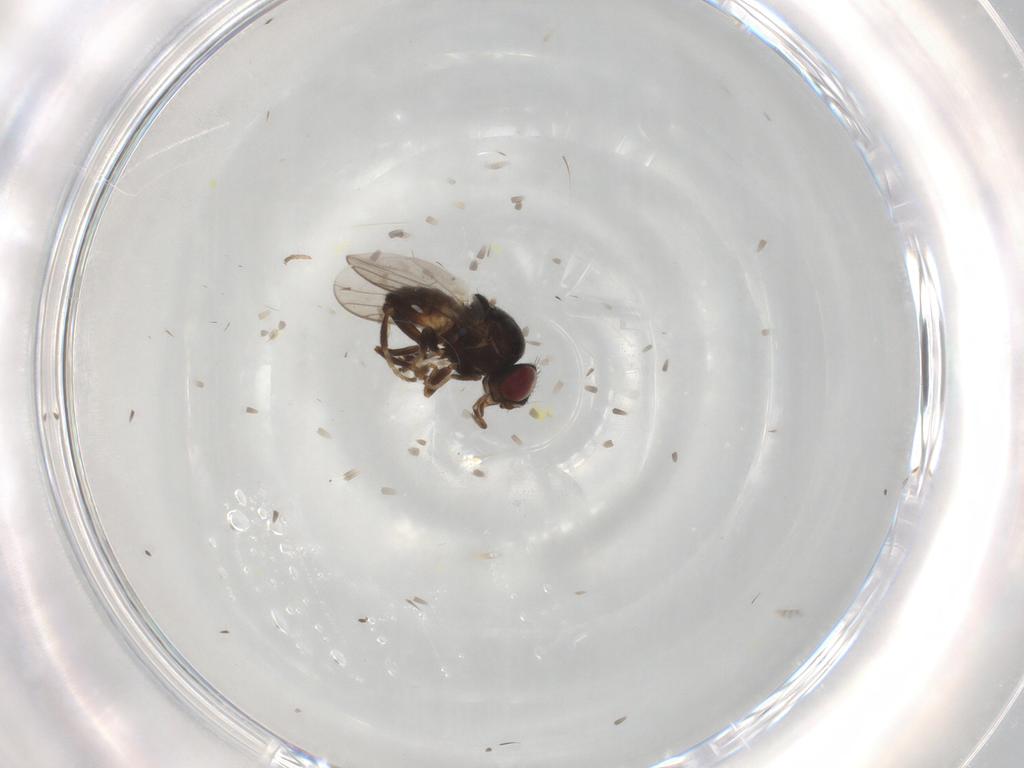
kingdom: Animalia
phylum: Arthropoda
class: Insecta
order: Diptera
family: Chloropidae
